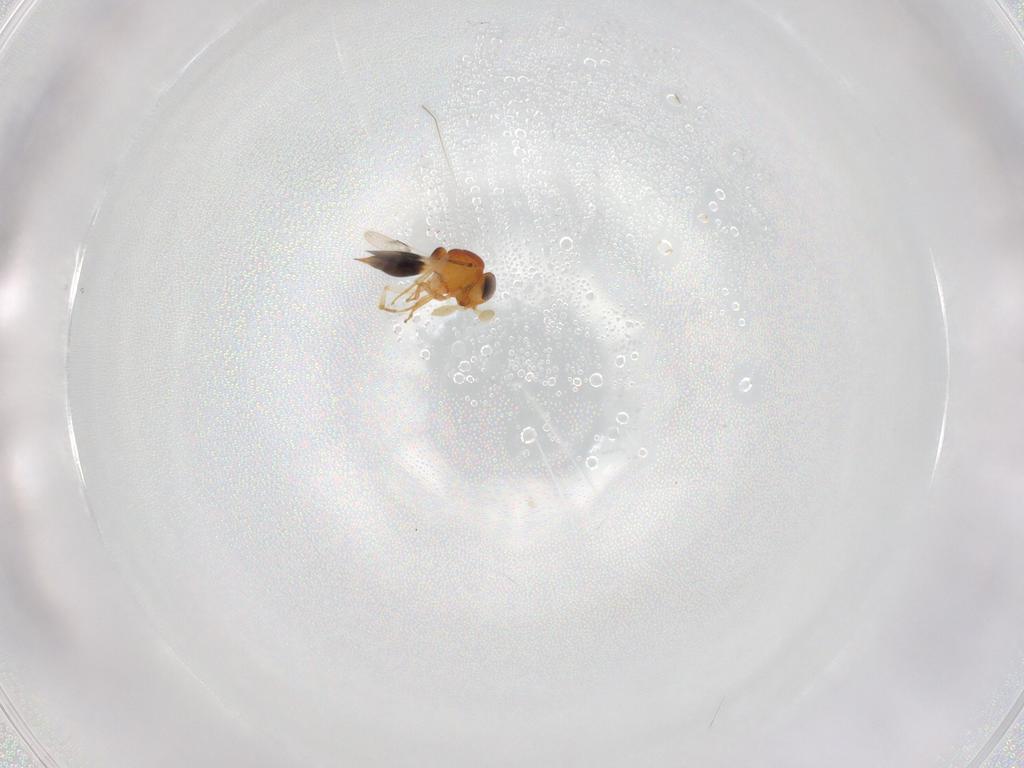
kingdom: Animalia
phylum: Arthropoda
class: Insecta
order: Hymenoptera
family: Scelionidae
